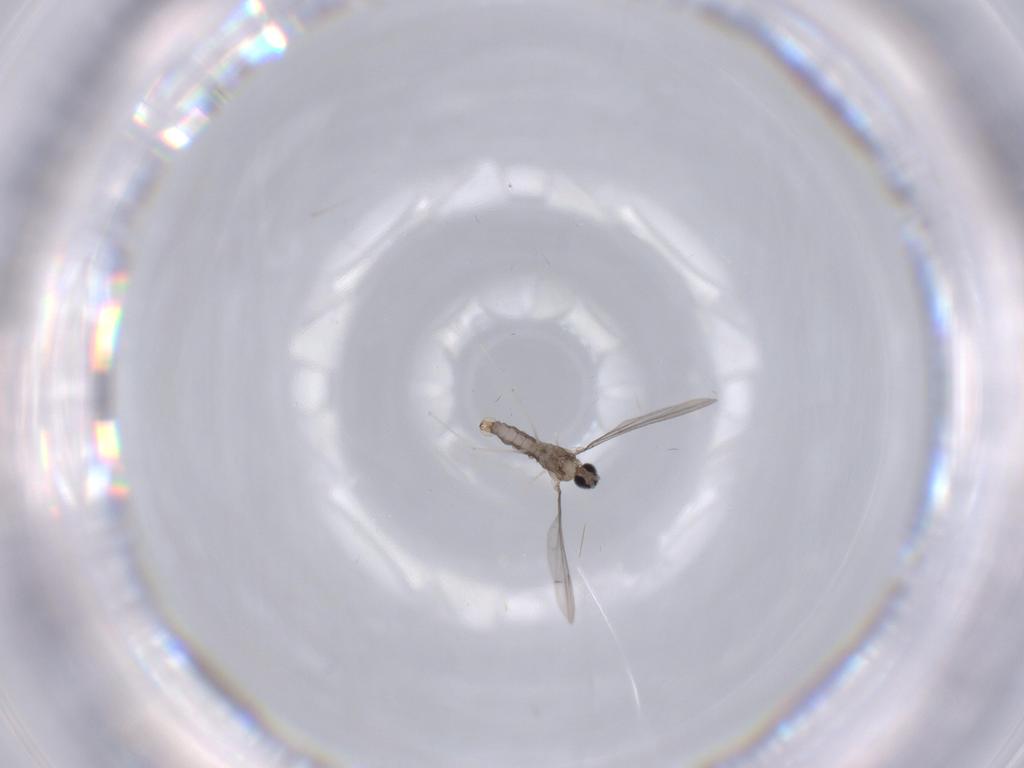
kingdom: Animalia
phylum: Arthropoda
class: Insecta
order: Diptera
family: Cecidomyiidae
